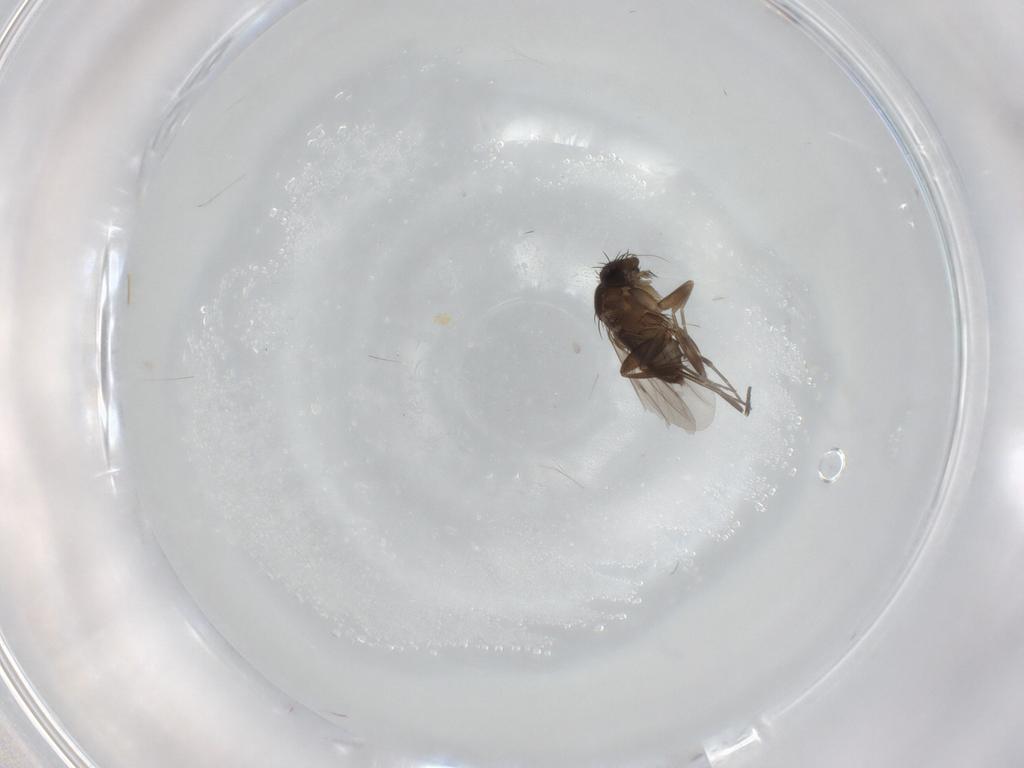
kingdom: Animalia
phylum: Arthropoda
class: Insecta
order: Diptera
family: Phoridae
